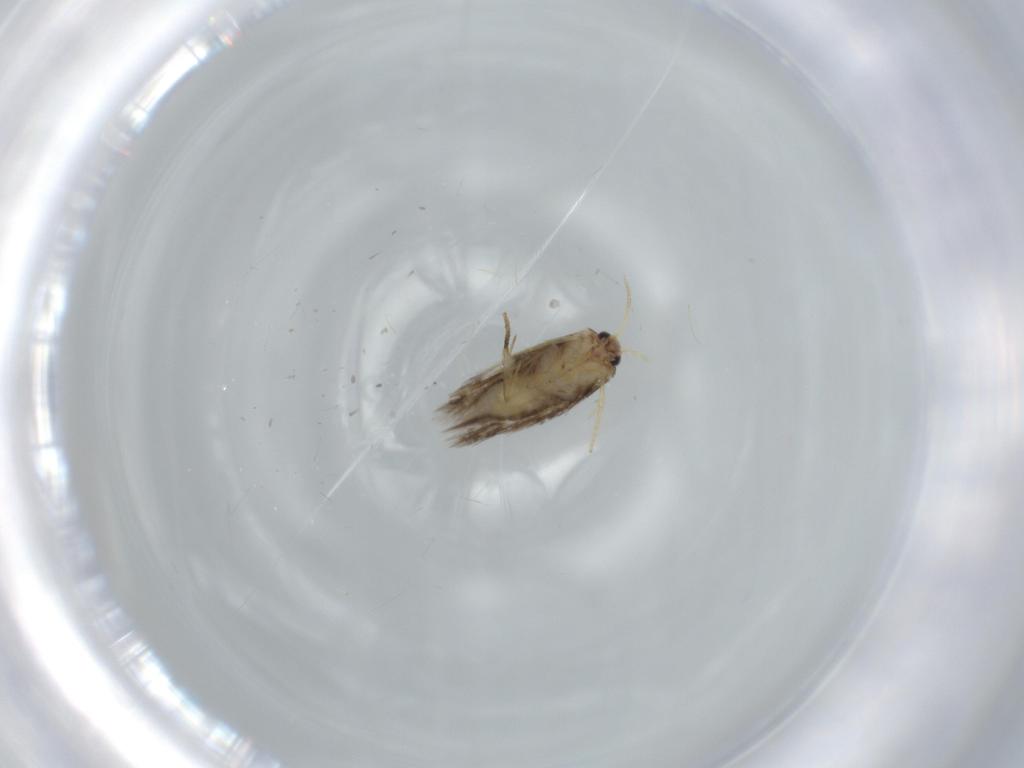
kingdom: Animalia
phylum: Arthropoda
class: Insecta
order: Lepidoptera
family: Nepticulidae
